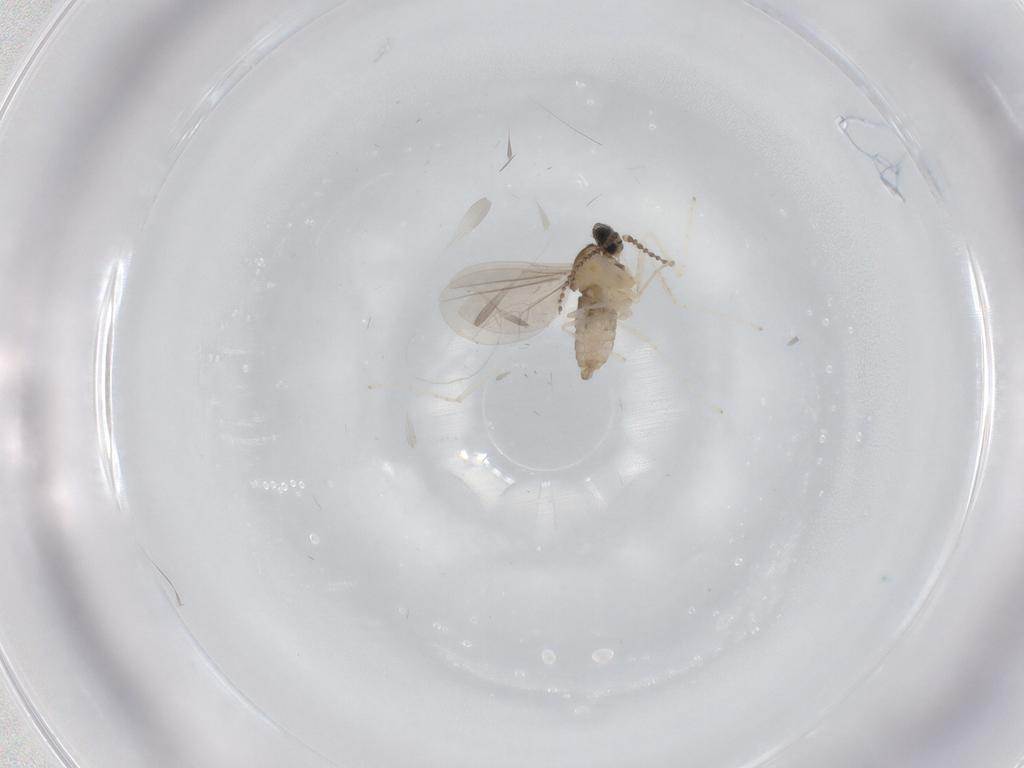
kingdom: Animalia
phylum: Arthropoda
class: Insecta
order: Diptera
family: Cecidomyiidae
